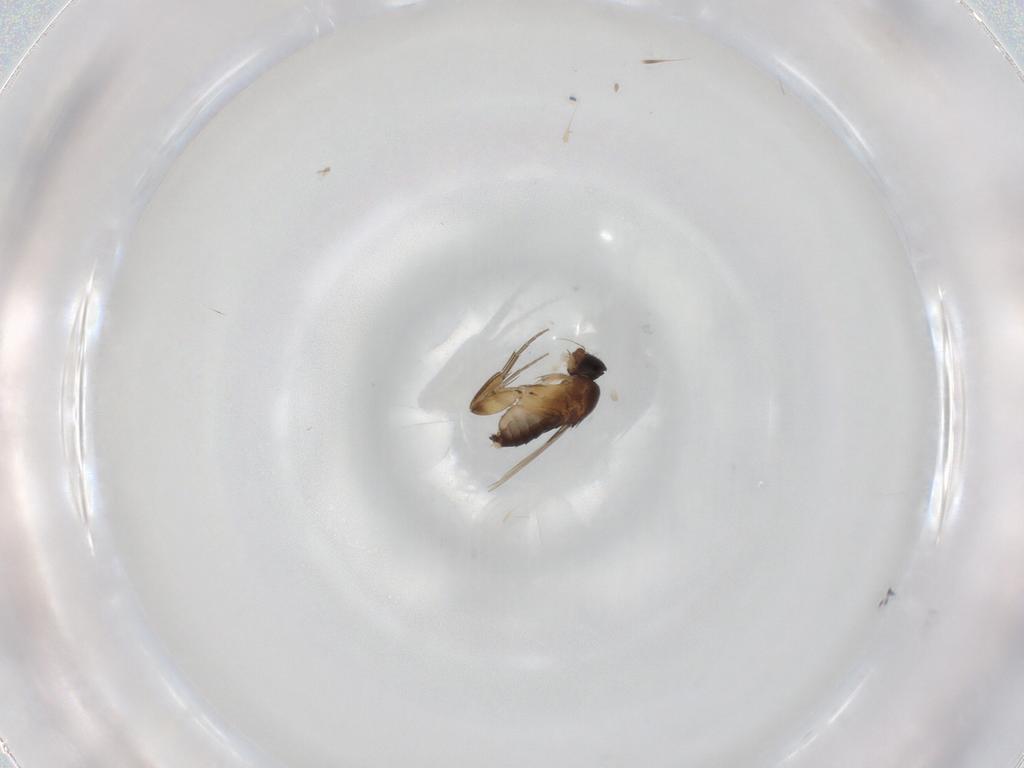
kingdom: Animalia
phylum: Arthropoda
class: Insecta
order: Diptera
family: Phoridae
